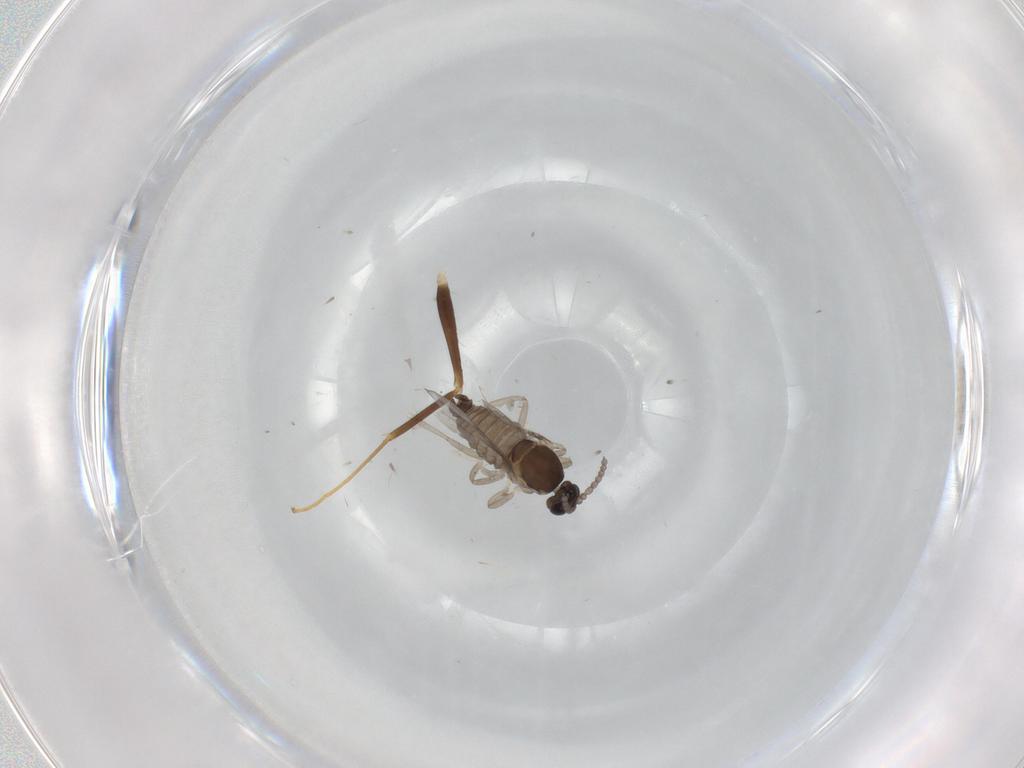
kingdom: Animalia
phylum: Arthropoda
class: Insecta
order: Diptera
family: Cecidomyiidae
